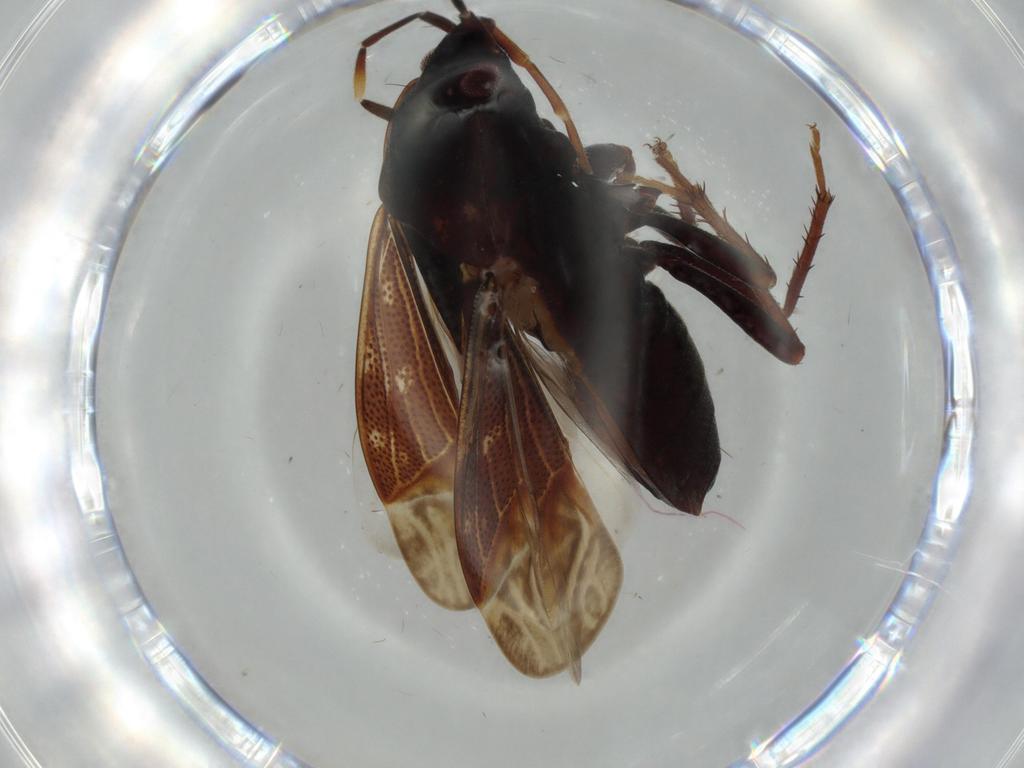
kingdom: Animalia
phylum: Arthropoda
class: Insecta
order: Hemiptera
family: Rhyparochromidae
